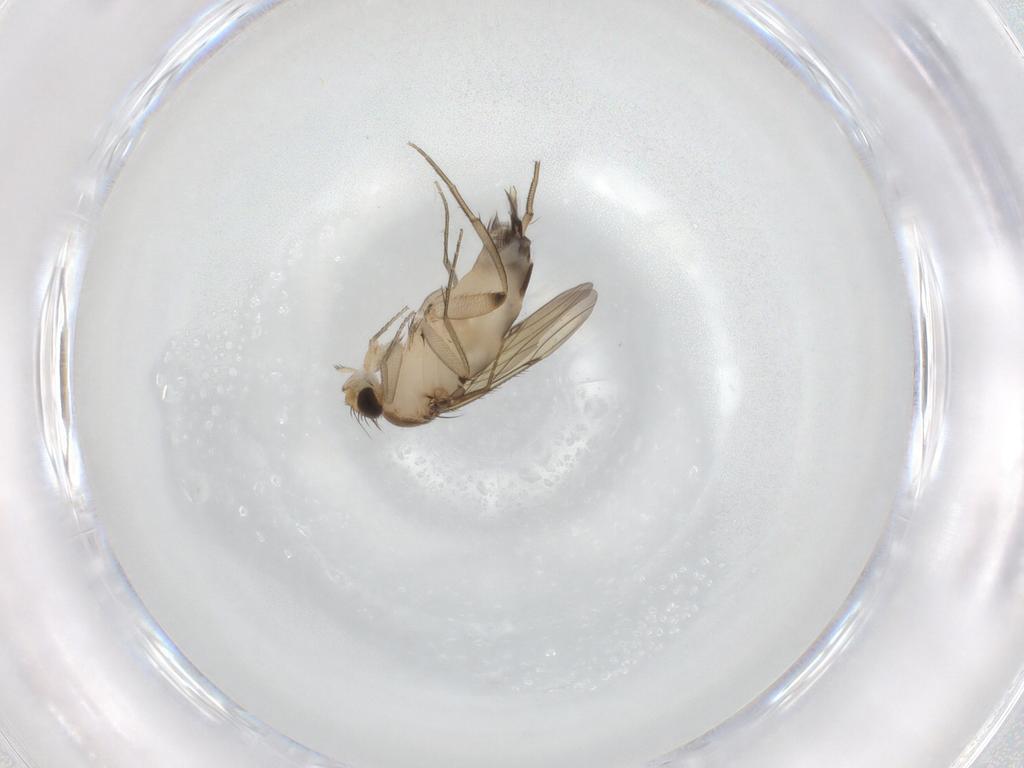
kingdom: Animalia
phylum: Arthropoda
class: Insecta
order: Diptera
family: Phoridae
